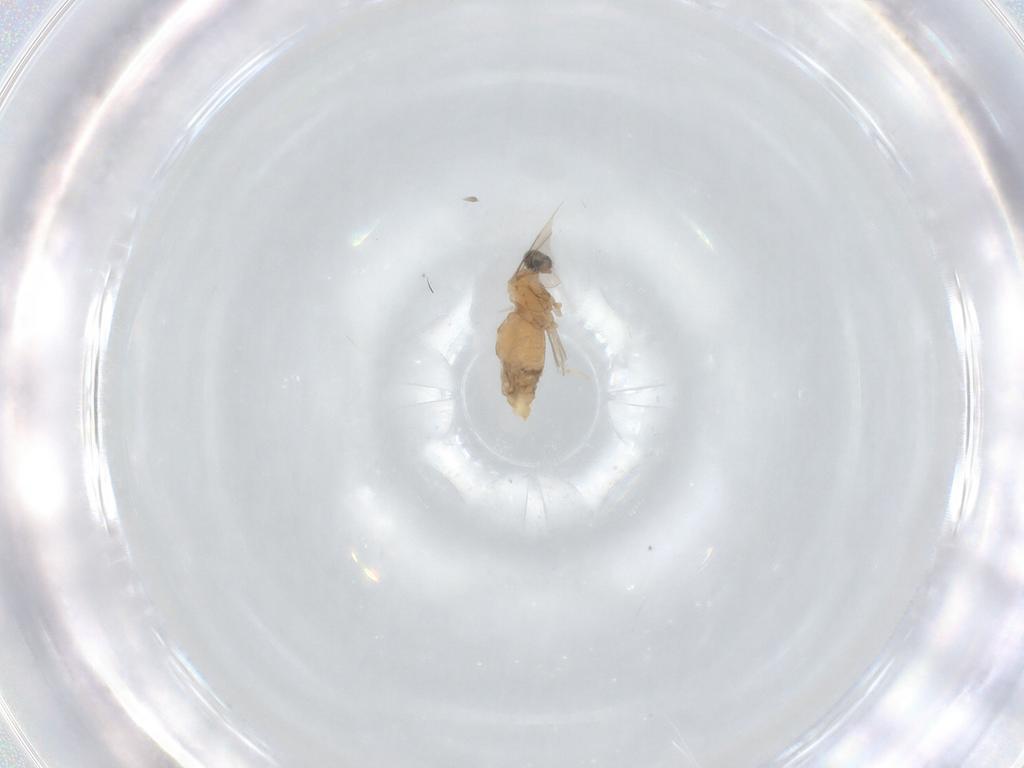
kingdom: Animalia
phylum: Arthropoda
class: Insecta
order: Diptera
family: Cecidomyiidae
